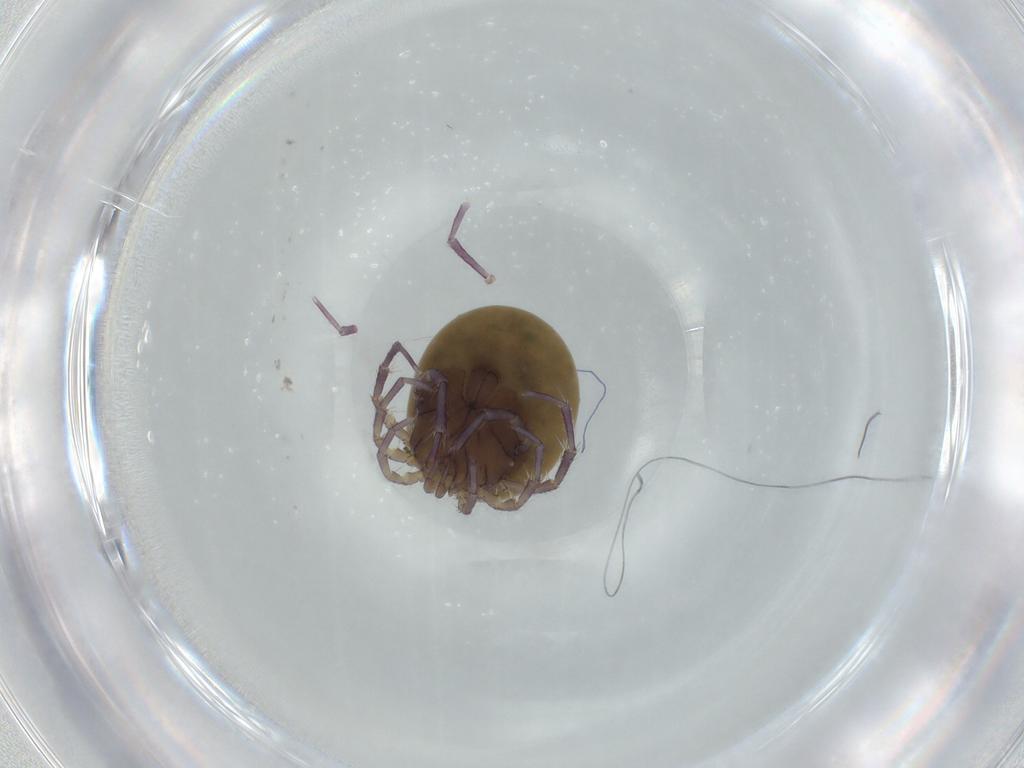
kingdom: Animalia
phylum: Arthropoda
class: Arachnida
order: Trombidiformes
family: Lebertiidae
